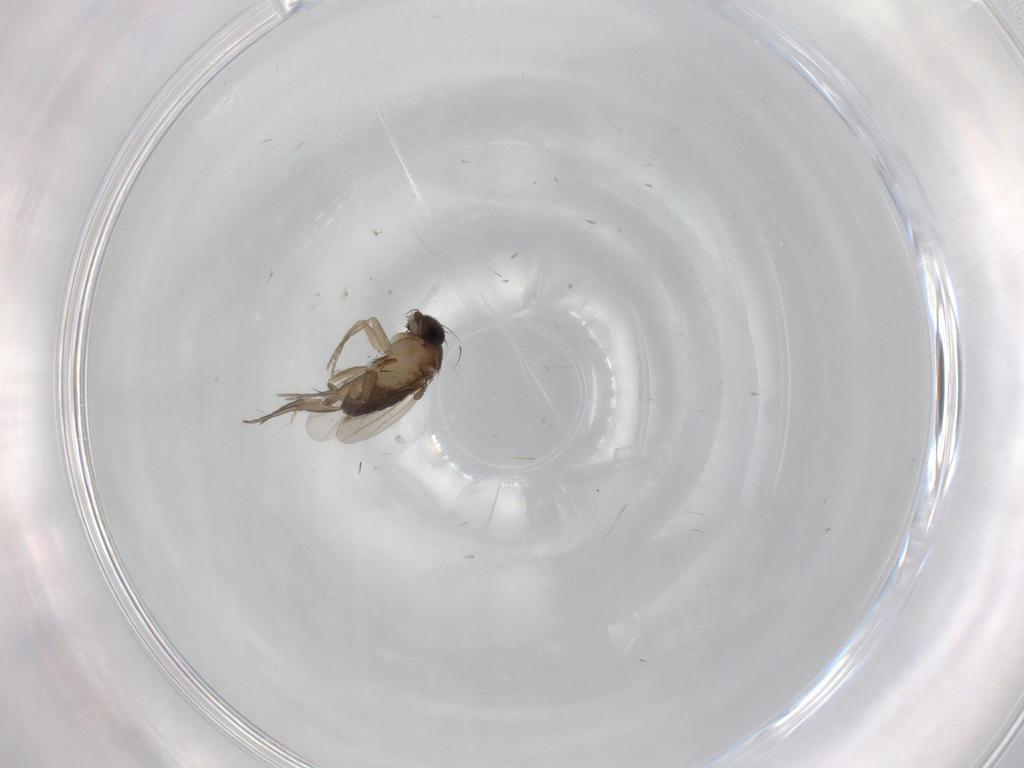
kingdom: Animalia
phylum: Arthropoda
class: Insecta
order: Diptera
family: Phoridae
